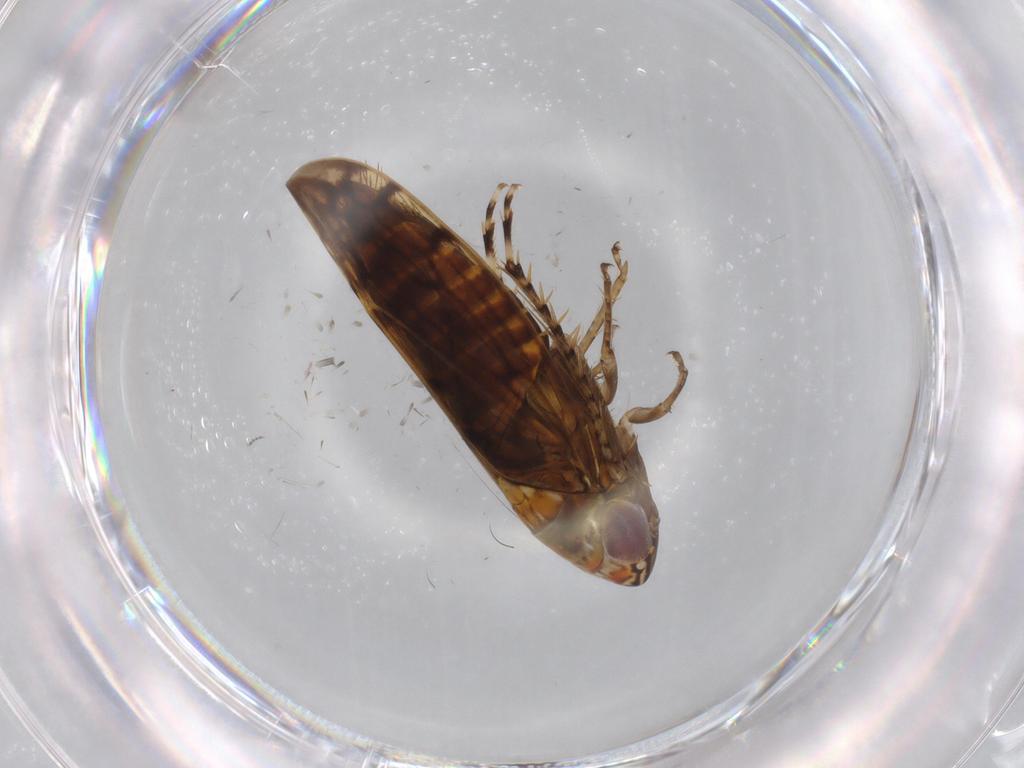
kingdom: Animalia
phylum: Arthropoda
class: Insecta
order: Hemiptera
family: Cicadellidae
